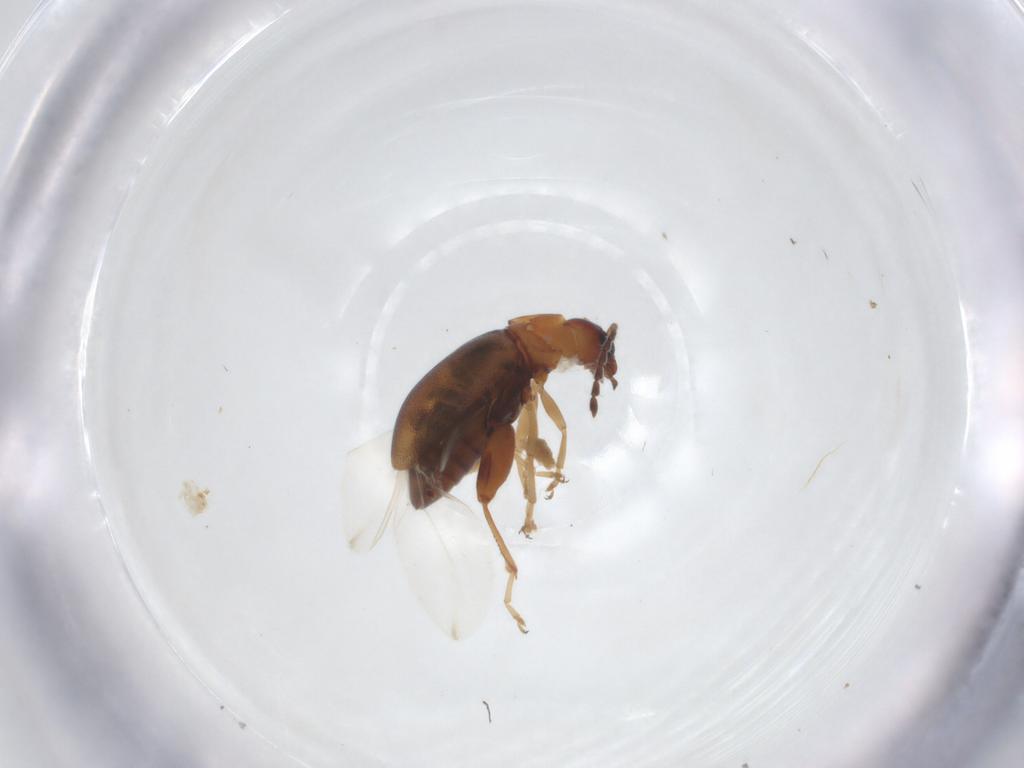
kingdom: Animalia
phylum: Arthropoda
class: Insecta
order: Coleoptera
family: Chrysomelidae
